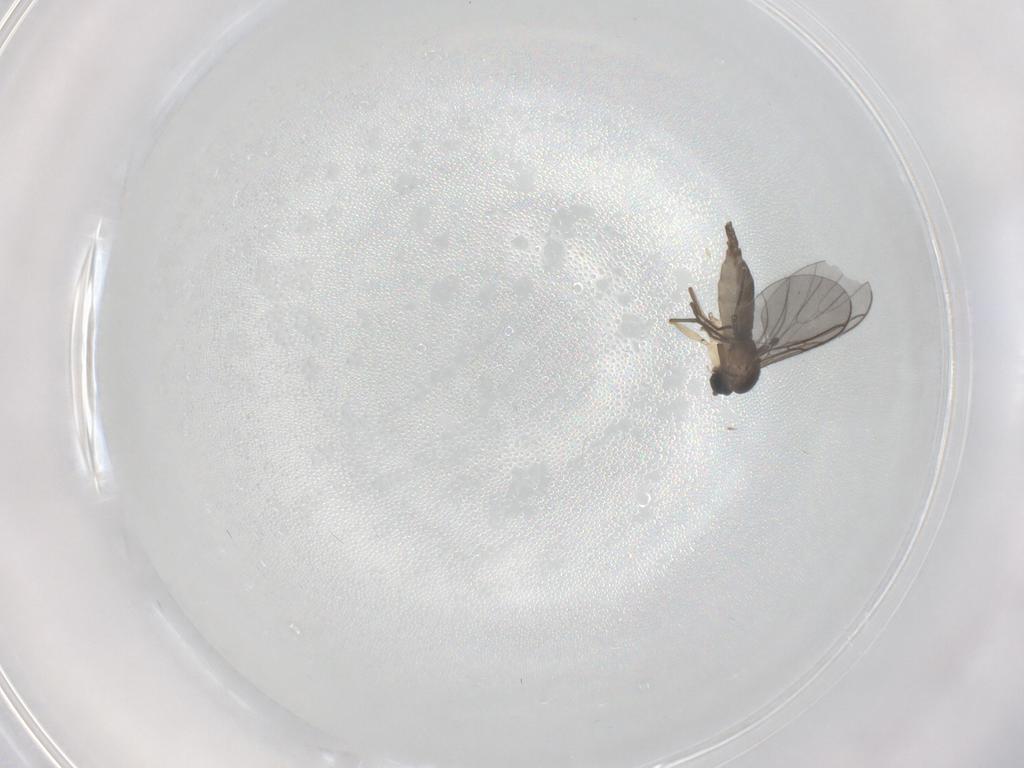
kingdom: Animalia
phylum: Arthropoda
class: Insecta
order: Diptera
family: Sciaridae
